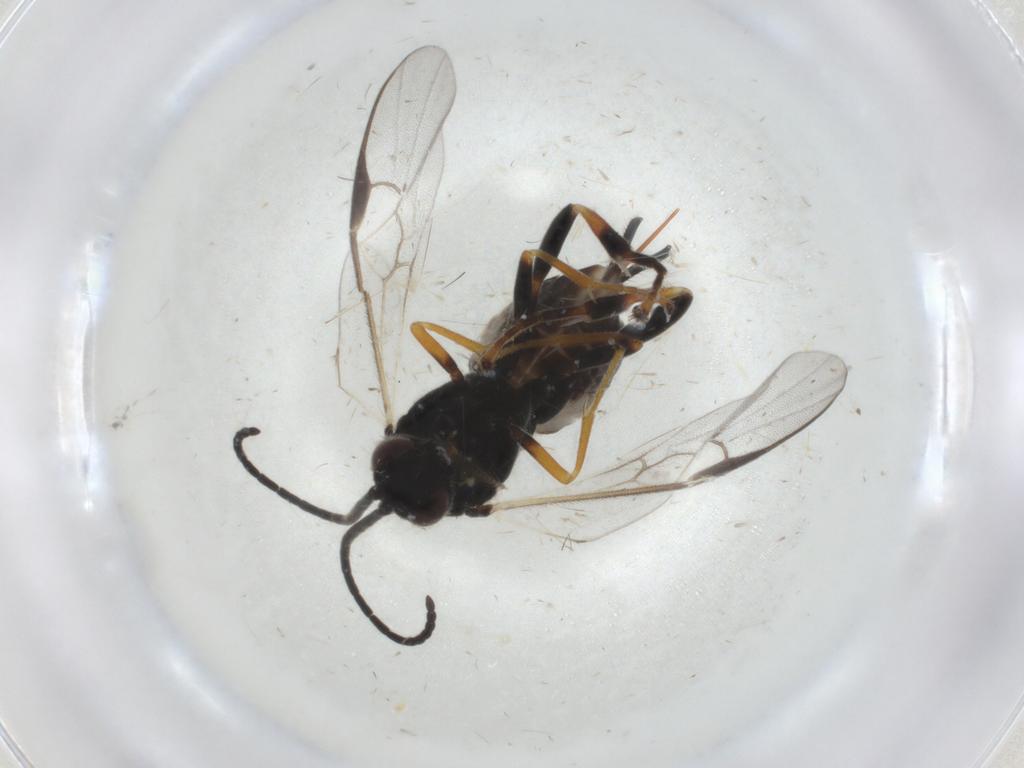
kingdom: Animalia
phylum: Arthropoda
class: Insecta
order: Hymenoptera
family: Braconidae
